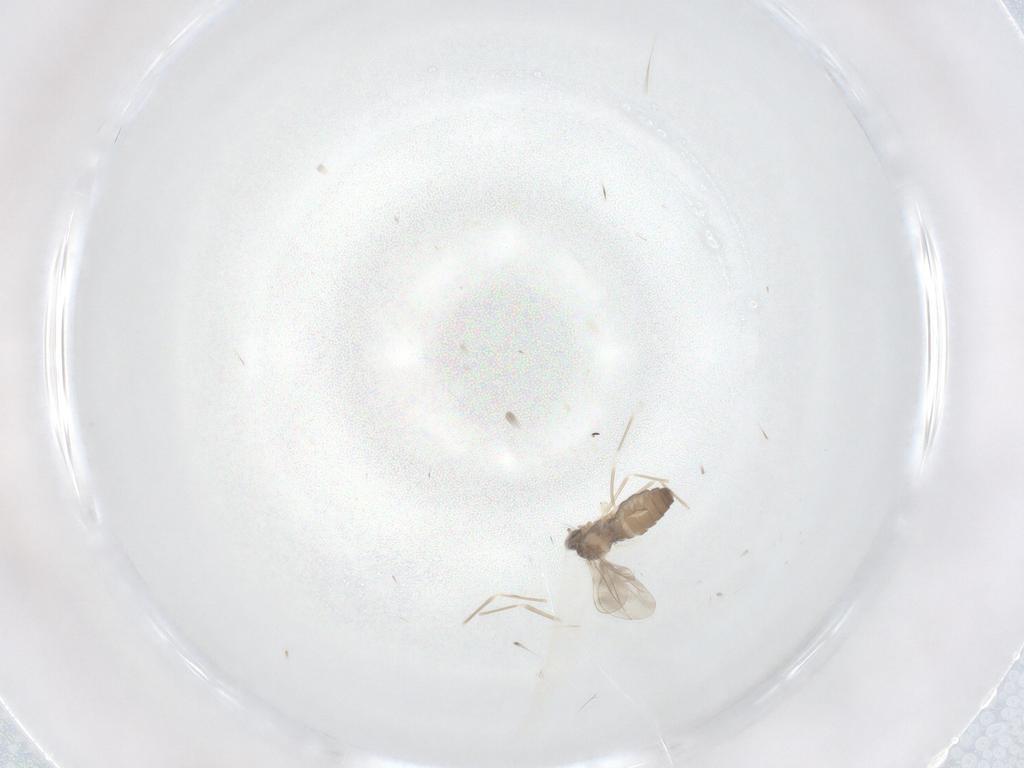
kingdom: Animalia
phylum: Arthropoda
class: Insecta
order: Diptera
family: Cecidomyiidae
